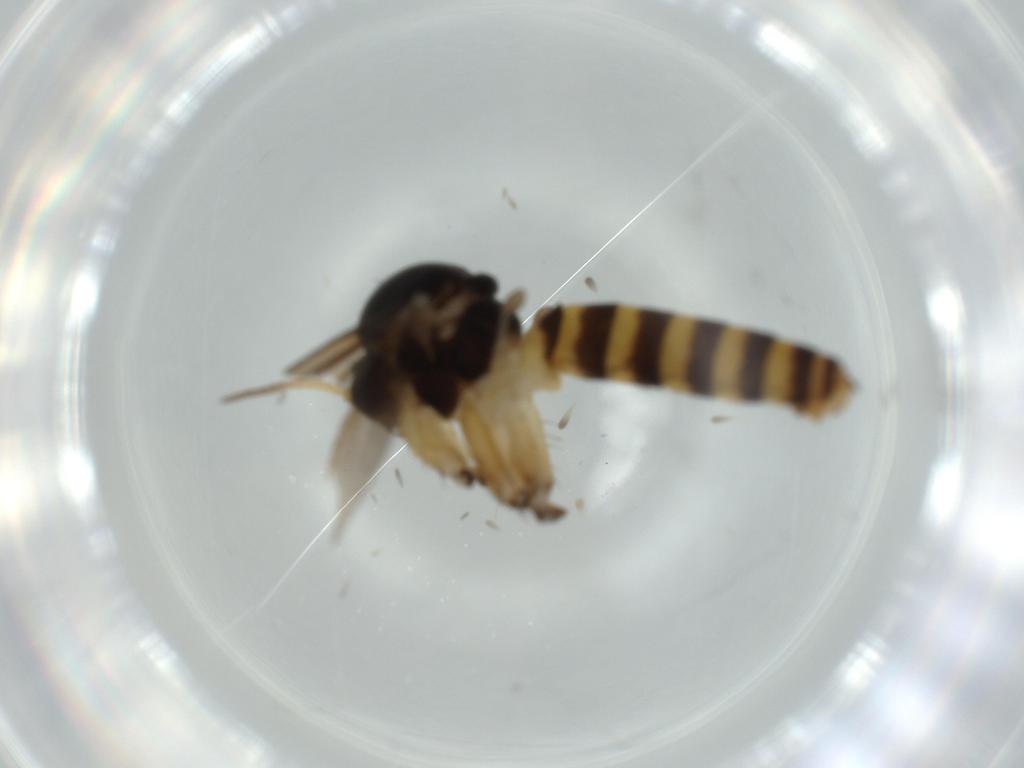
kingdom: Animalia
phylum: Arthropoda
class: Insecta
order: Diptera
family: Mycetophilidae
